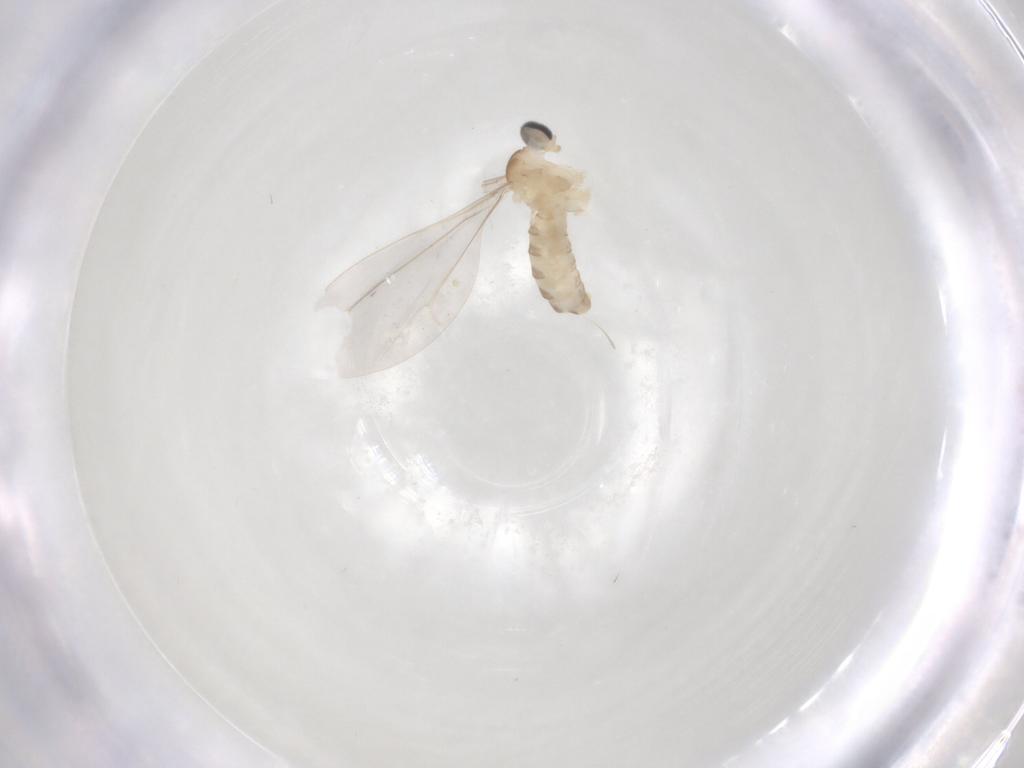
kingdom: Animalia
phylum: Arthropoda
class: Insecta
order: Diptera
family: Cecidomyiidae
